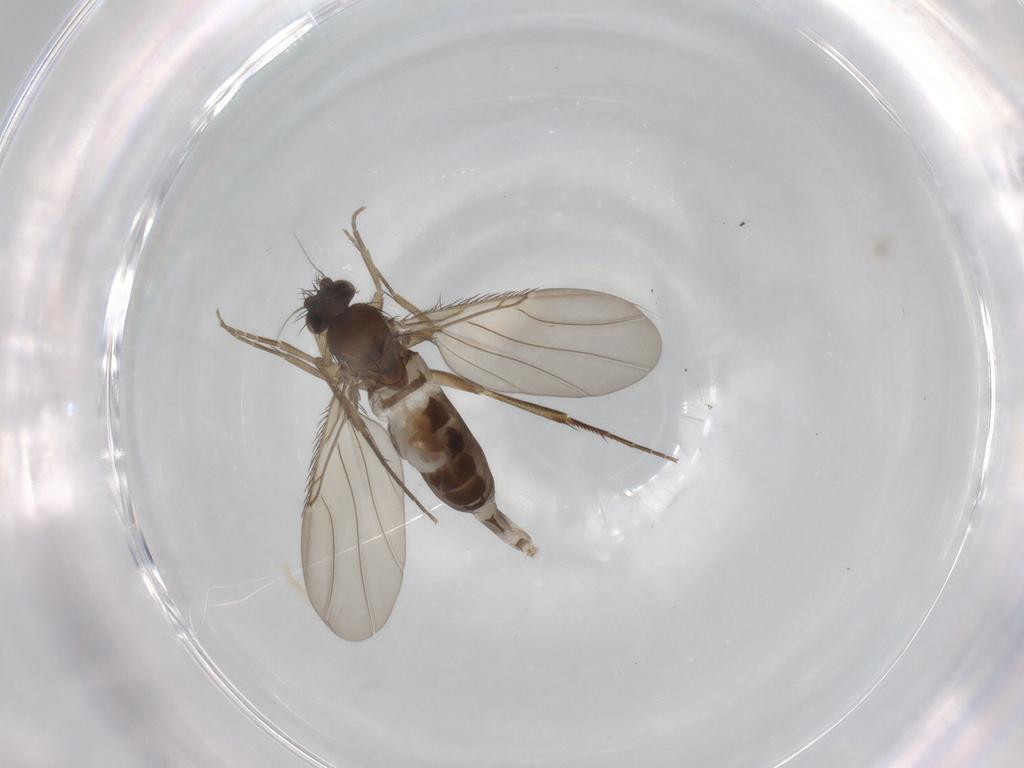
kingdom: Animalia
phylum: Arthropoda
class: Insecta
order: Diptera
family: Phoridae
